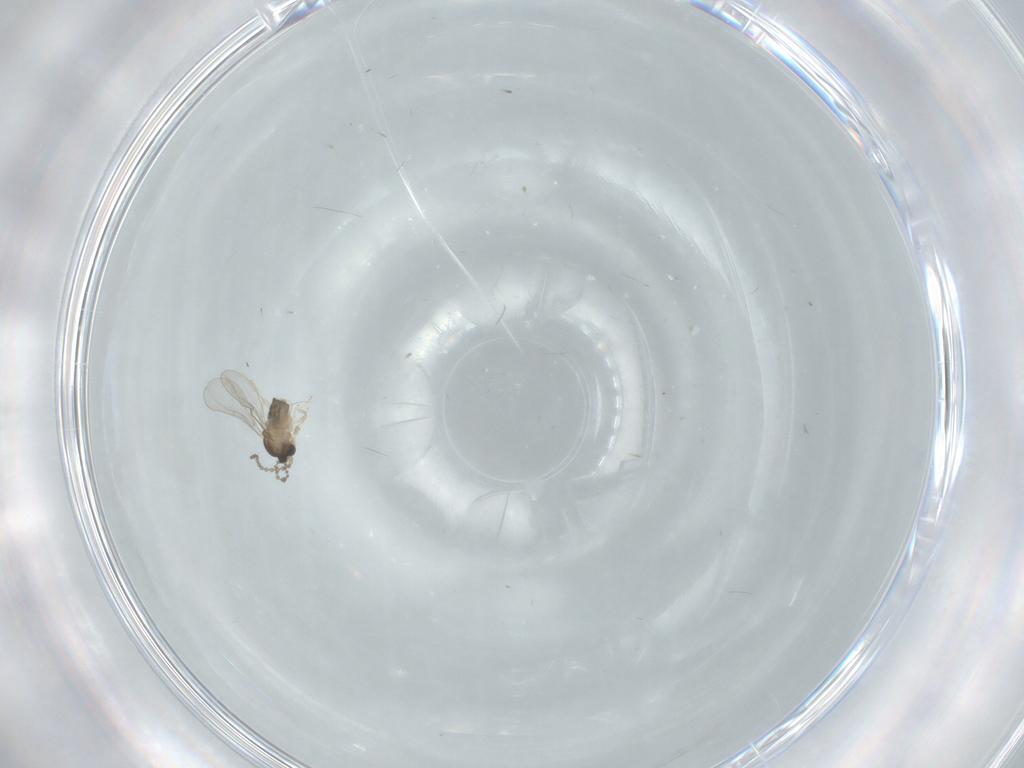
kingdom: Animalia
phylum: Arthropoda
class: Insecta
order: Diptera
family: Cecidomyiidae
